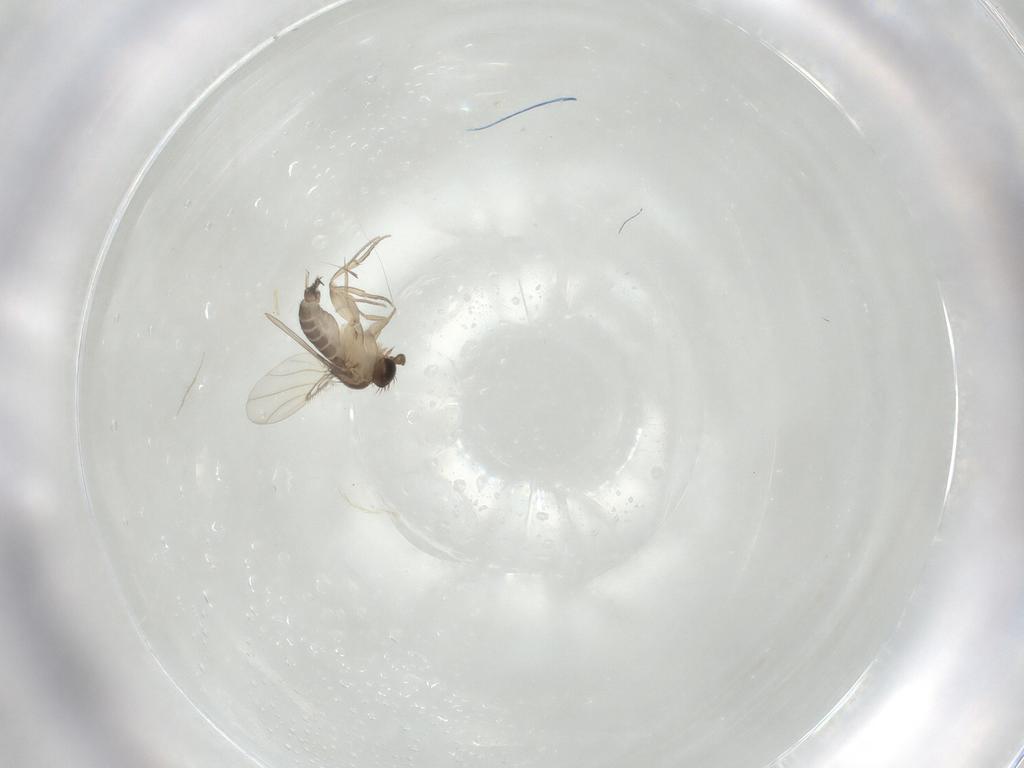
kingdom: Animalia
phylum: Arthropoda
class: Insecta
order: Diptera
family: Phoridae
